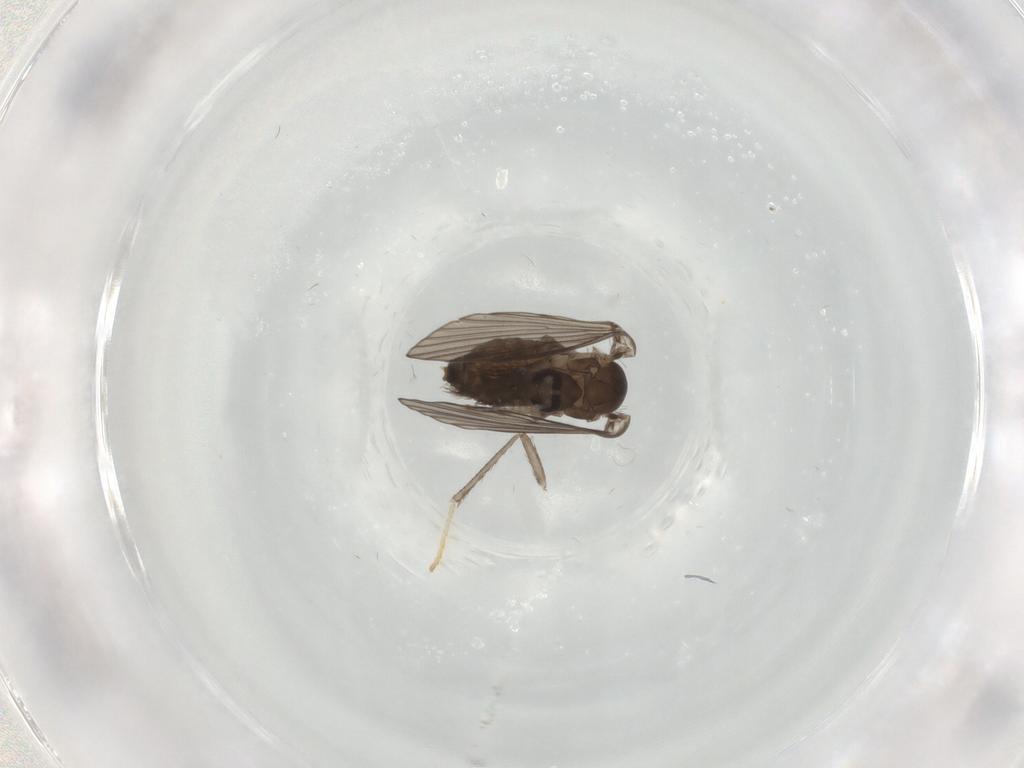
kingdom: Animalia
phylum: Arthropoda
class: Insecta
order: Diptera
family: Psychodidae
